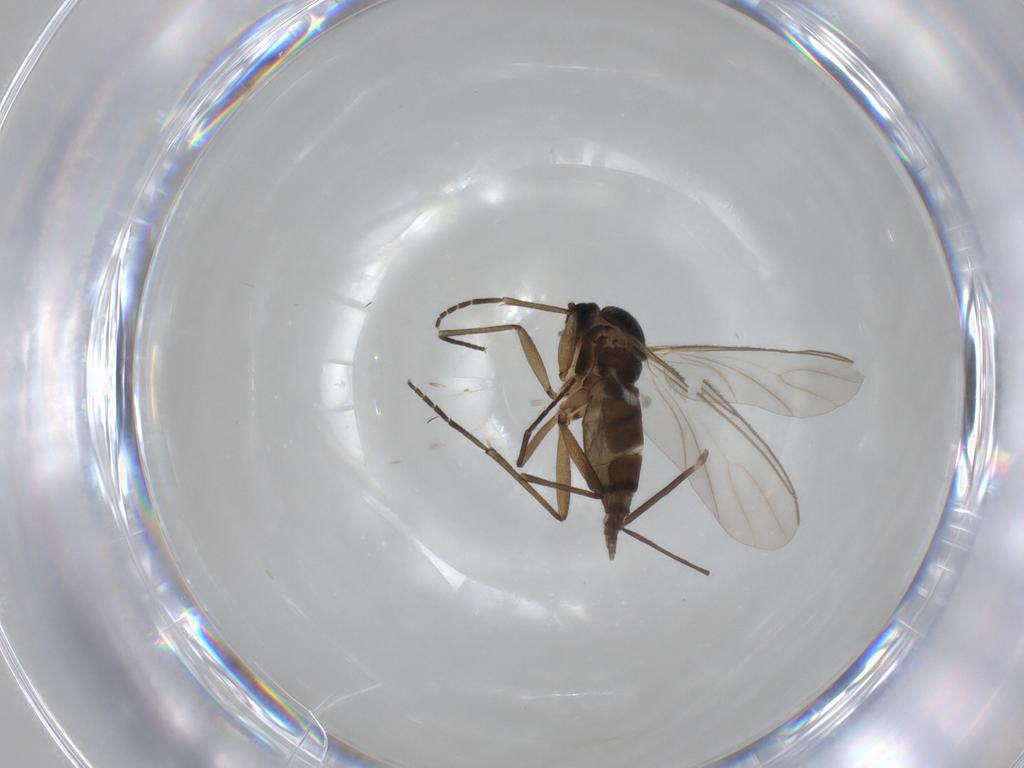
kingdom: Animalia
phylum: Arthropoda
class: Insecta
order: Diptera
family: Chironomidae
